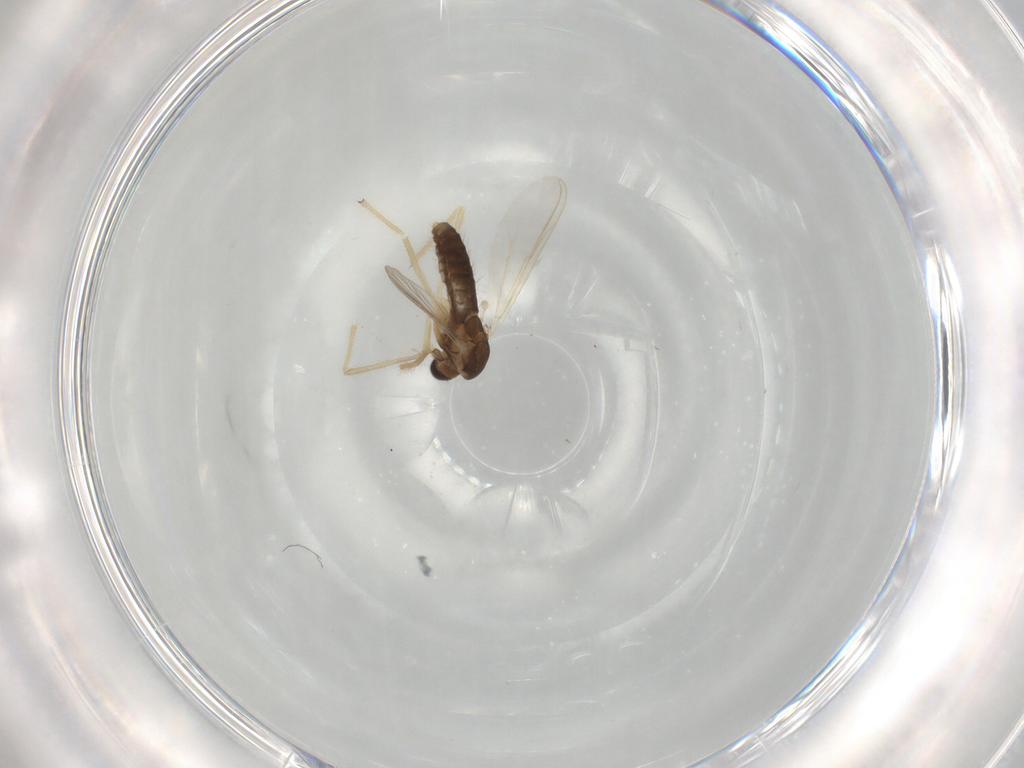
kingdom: Animalia
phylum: Arthropoda
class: Insecta
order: Diptera
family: Chironomidae
